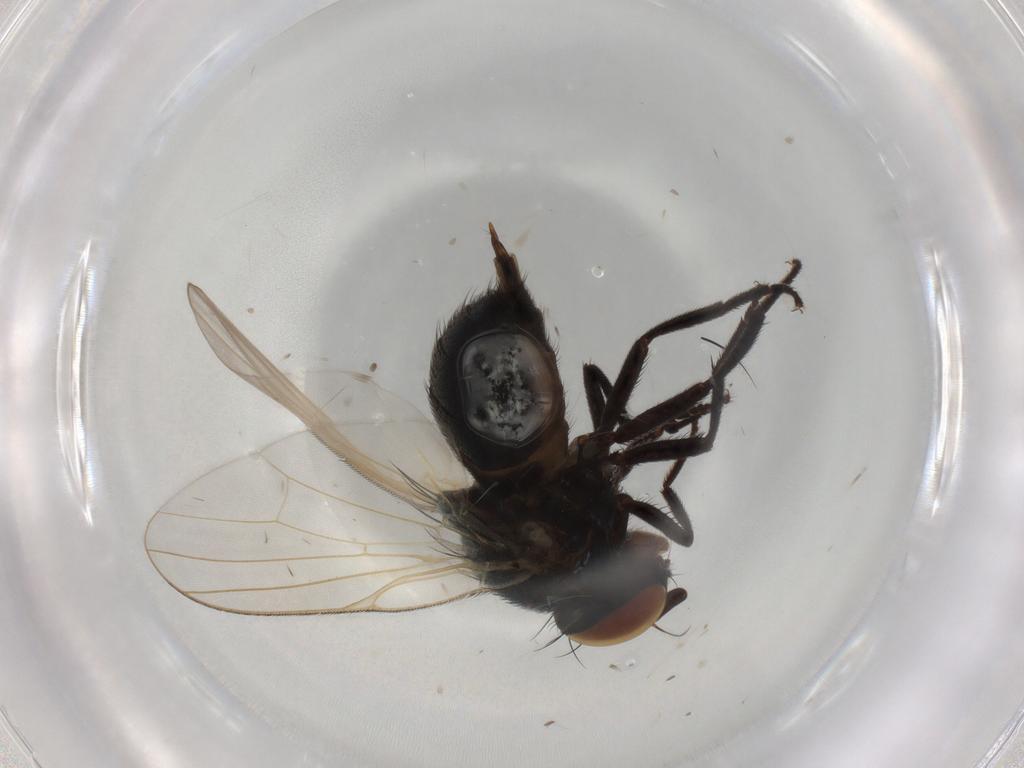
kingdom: Animalia
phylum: Arthropoda
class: Insecta
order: Diptera
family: Lonchaeidae
